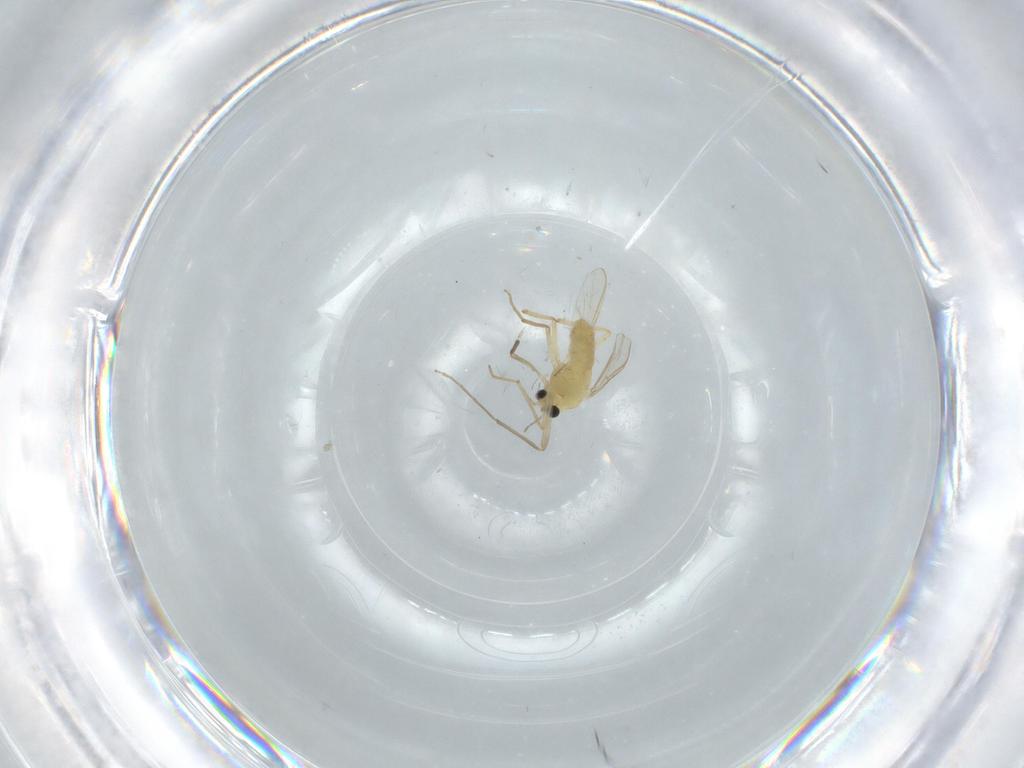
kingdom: Animalia
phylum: Arthropoda
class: Insecta
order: Diptera
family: Chironomidae
